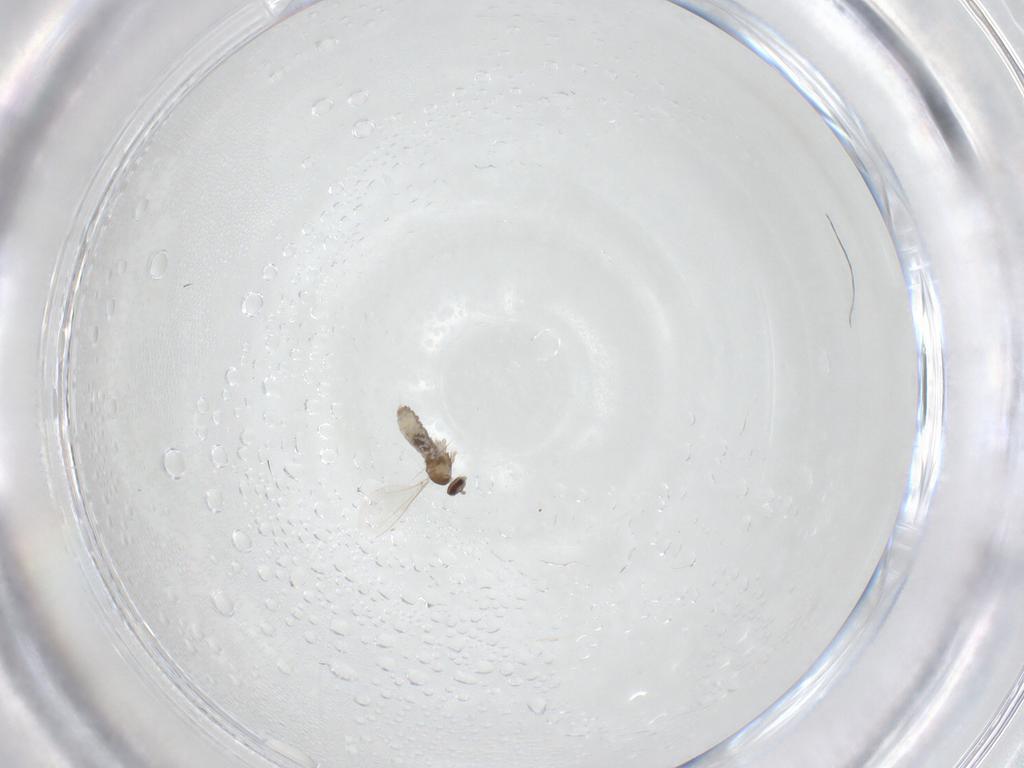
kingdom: Animalia
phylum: Arthropoda
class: Insecta
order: Diptera
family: Cecidomyiidae
